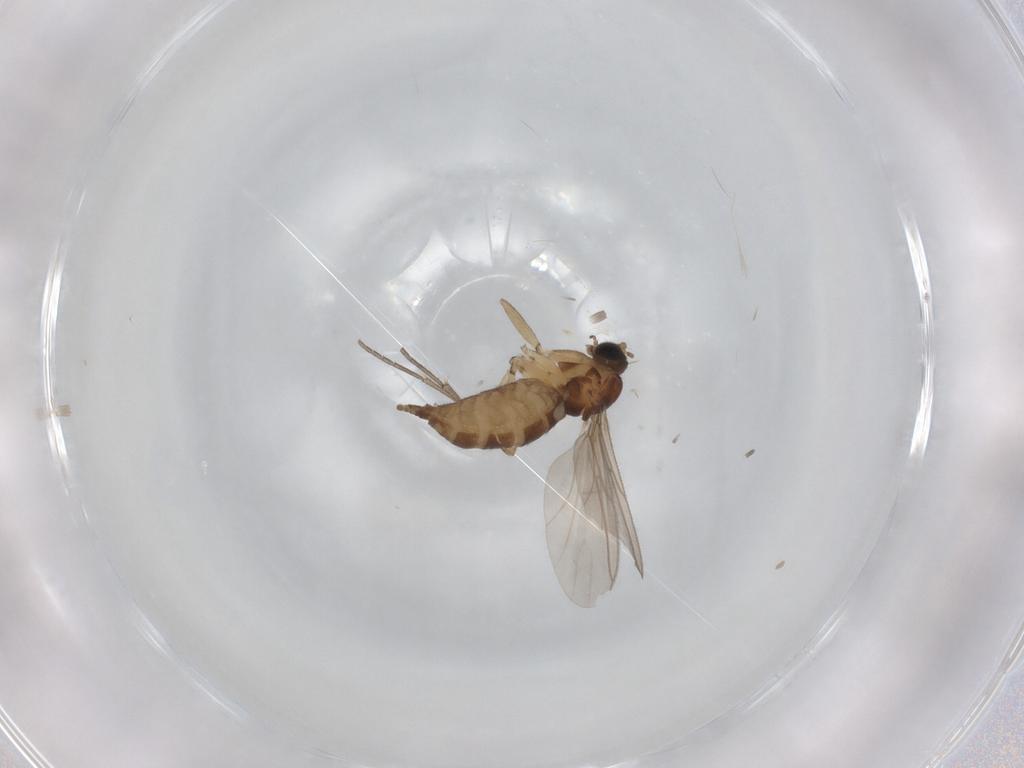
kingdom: Animalia
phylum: Arthropoda
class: Insecta
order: Diptera
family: Sciaridae
